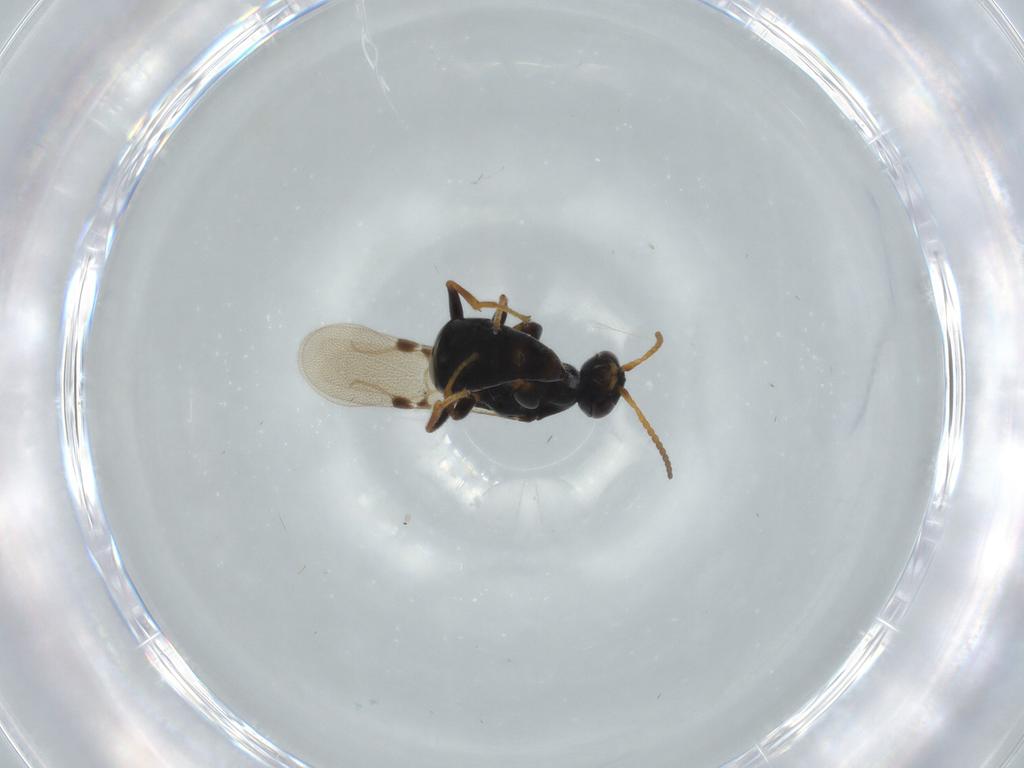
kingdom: Animalia
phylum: Arthropoda
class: Insecta
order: Hymenoptera
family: Bethylidae
